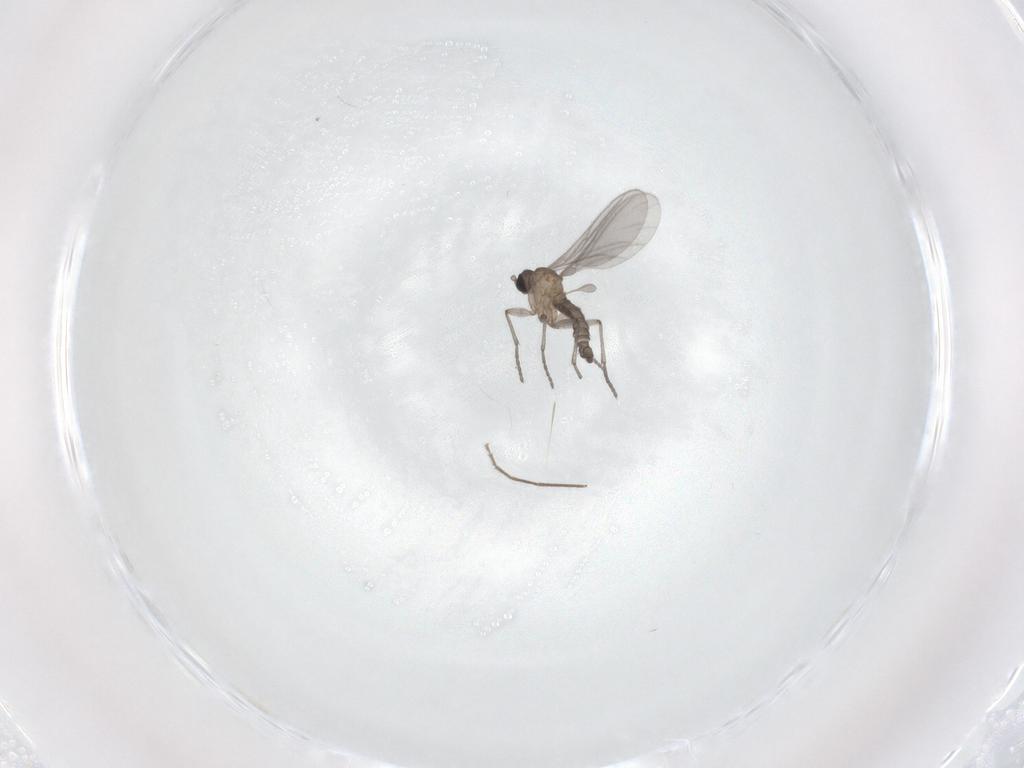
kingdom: Animalia
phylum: Arthropoda
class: Insecta
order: Diptera
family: Sciaridae
